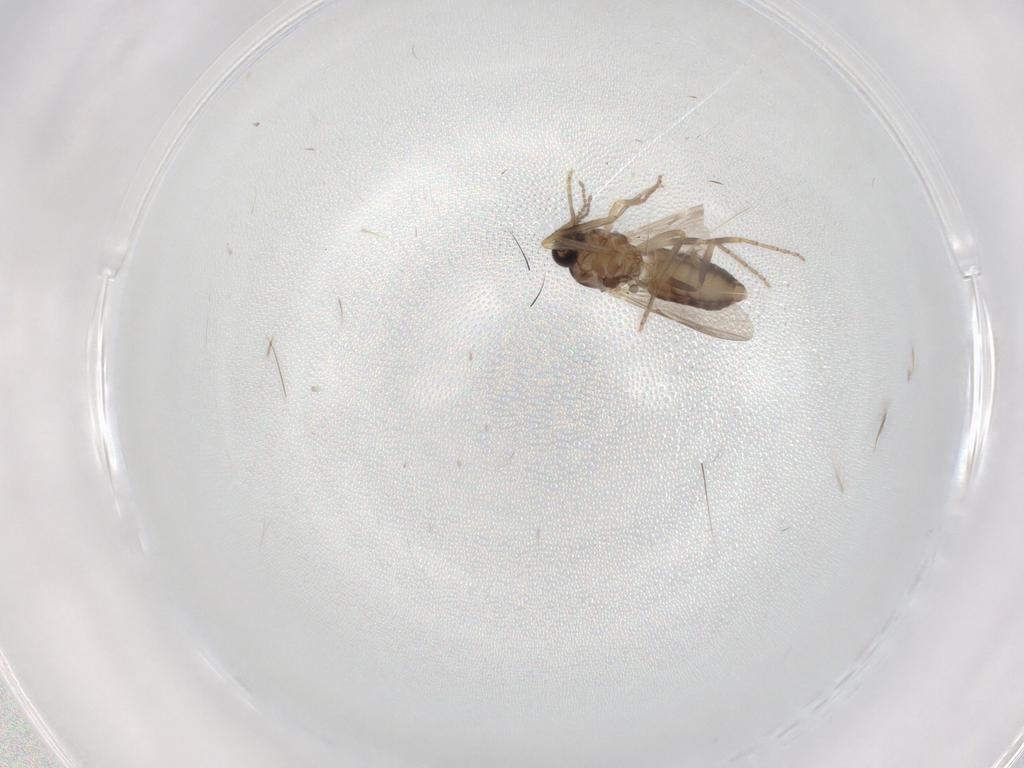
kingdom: Animalia
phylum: Arthropoda
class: Insecta
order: Diptera
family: Ceratopogonidae
